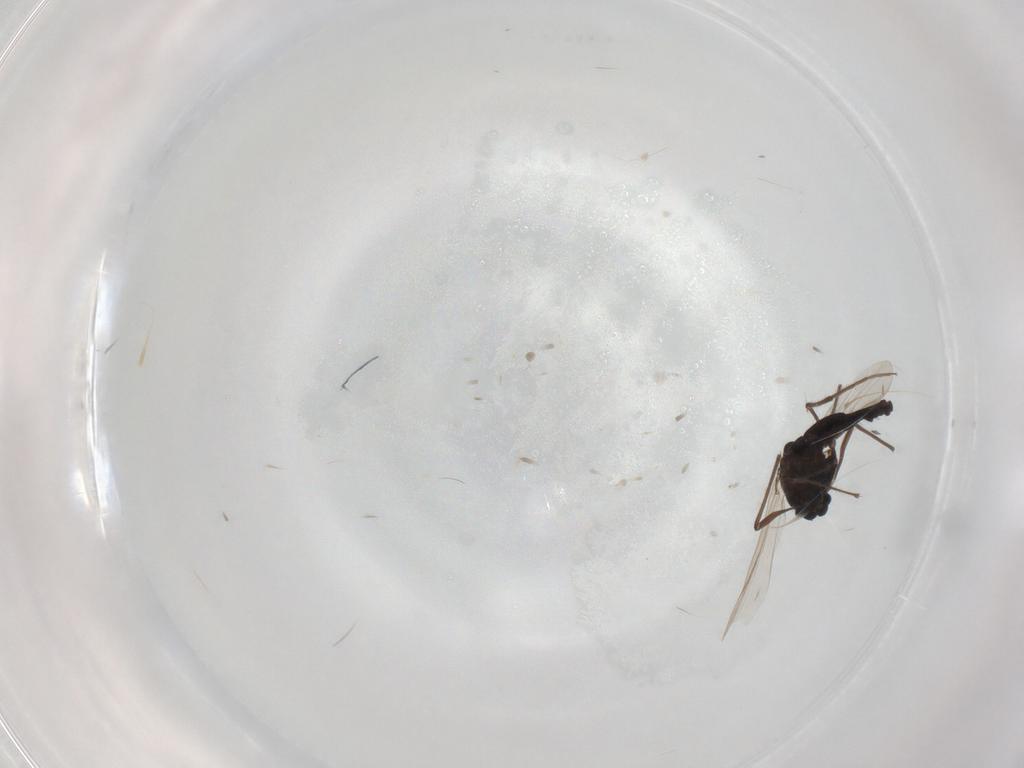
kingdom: Animalia
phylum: Arthropoda
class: Insecta
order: Diptera
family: Chironomidae
